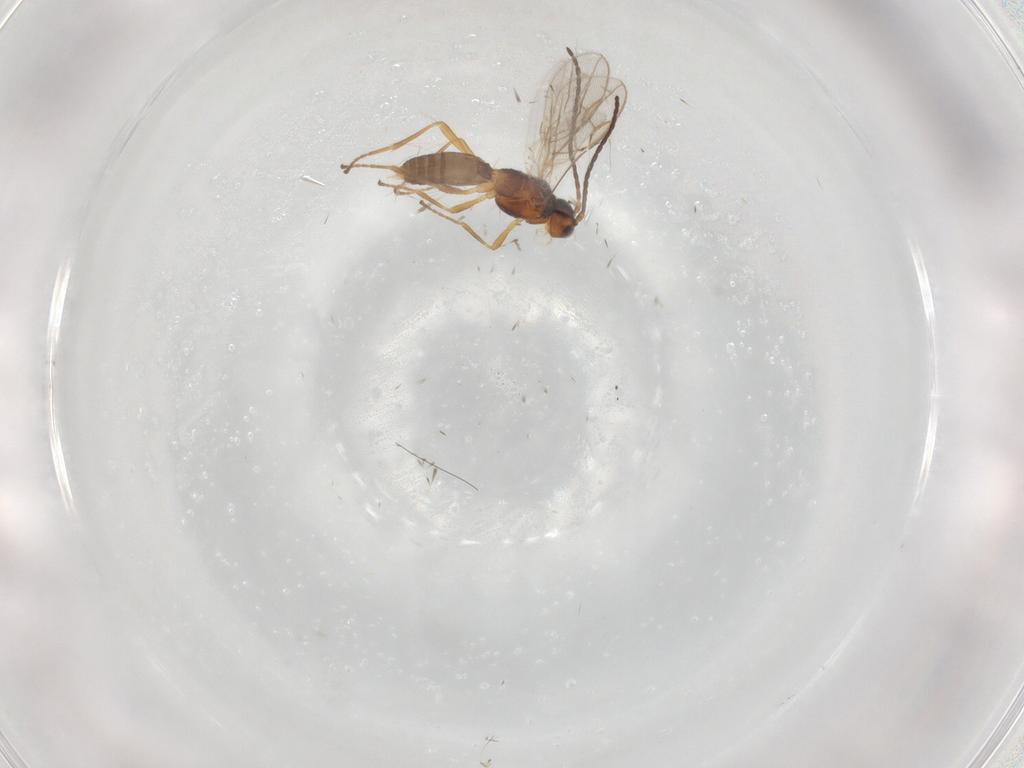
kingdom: Animalia
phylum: Arthropoda
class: Insecta
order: Hymenoptera
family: Braconidae
